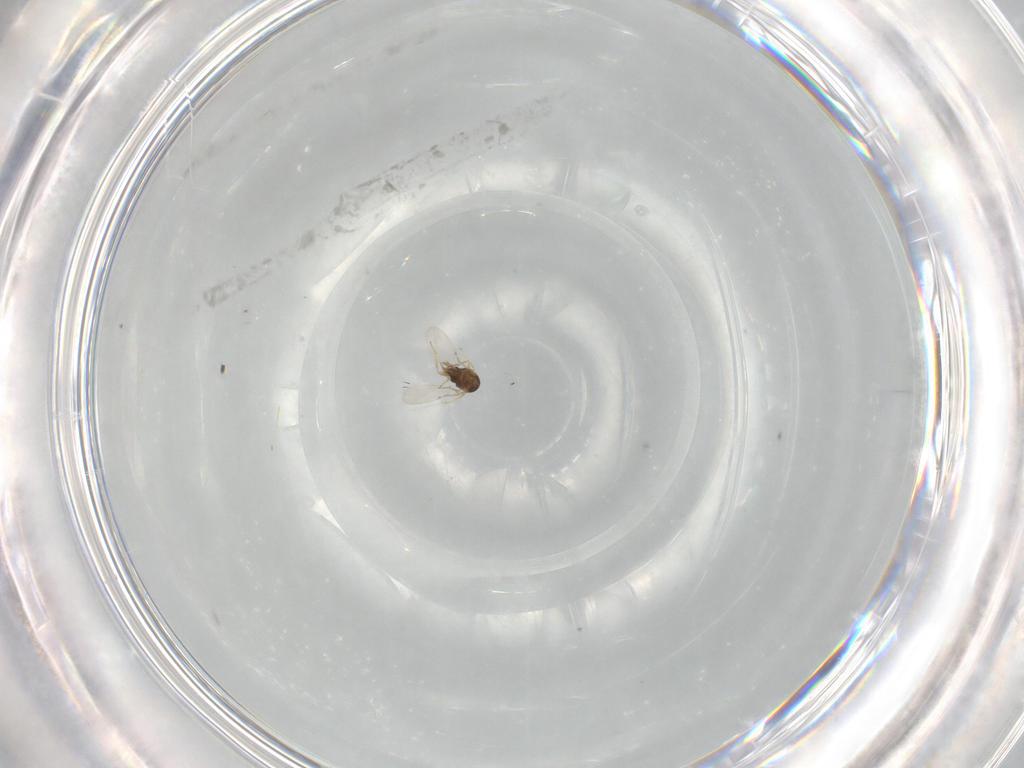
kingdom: Animalia
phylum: Arthropoda
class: Insecta
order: Hymenoptera
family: Encyrtidae
